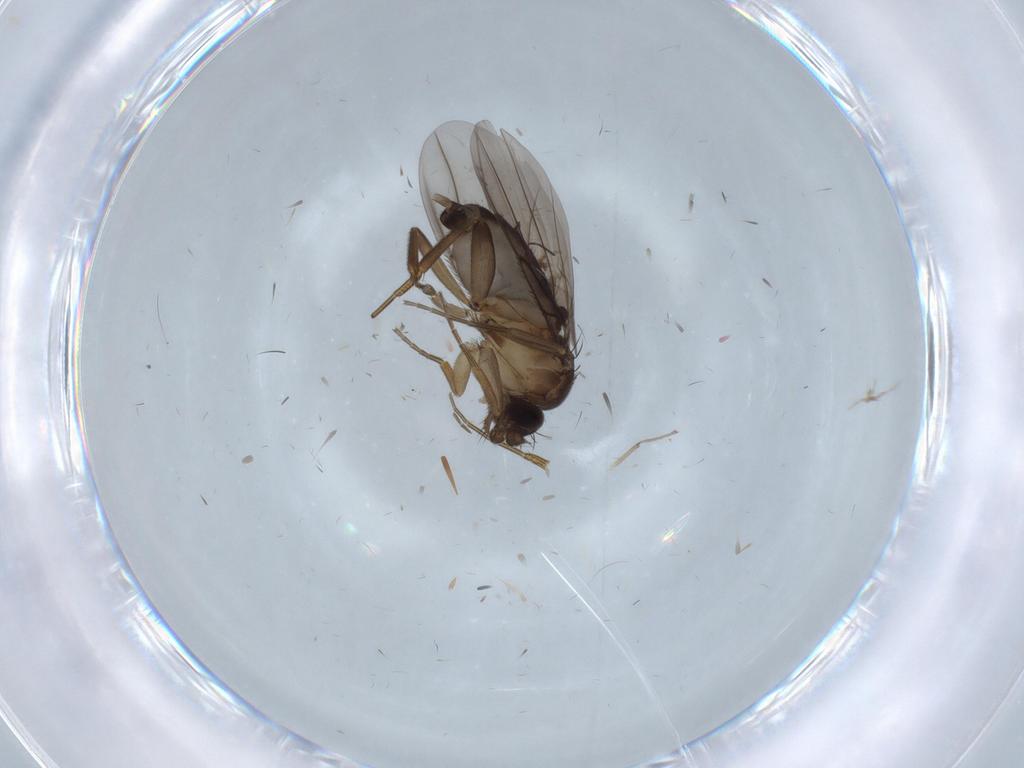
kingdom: Animalia
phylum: Arthropoda
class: Insecta
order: Diptera
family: Chironomidae
